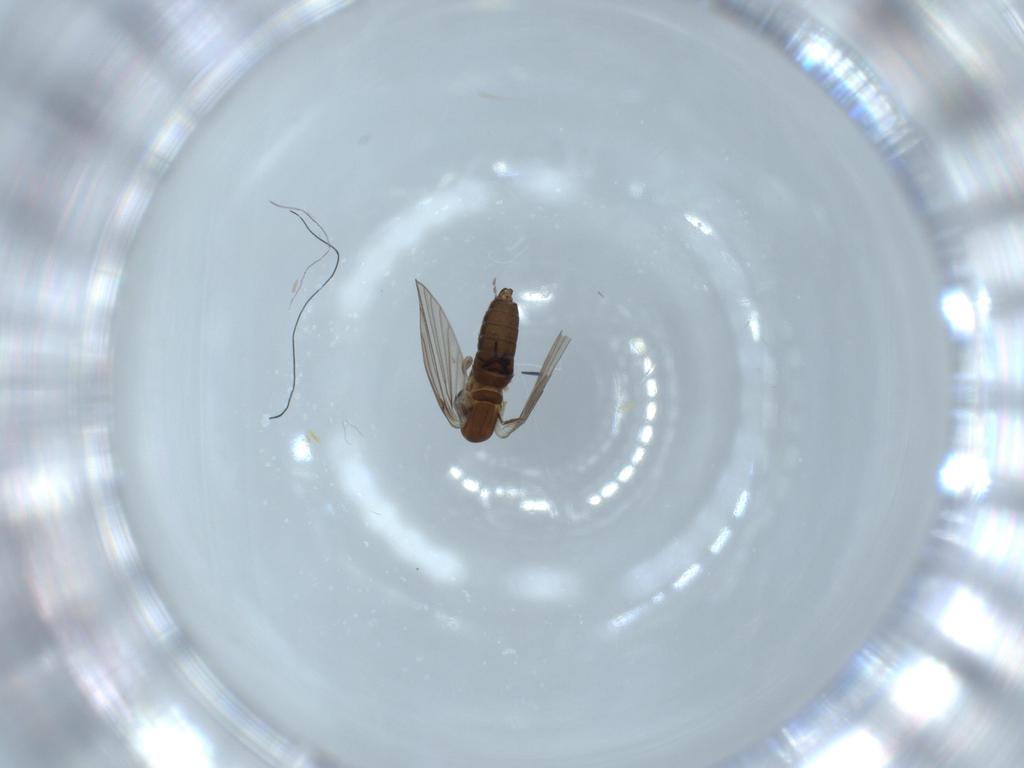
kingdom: Animalia
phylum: Arthropoda
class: Insecta
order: Diptera
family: Psychodidae
